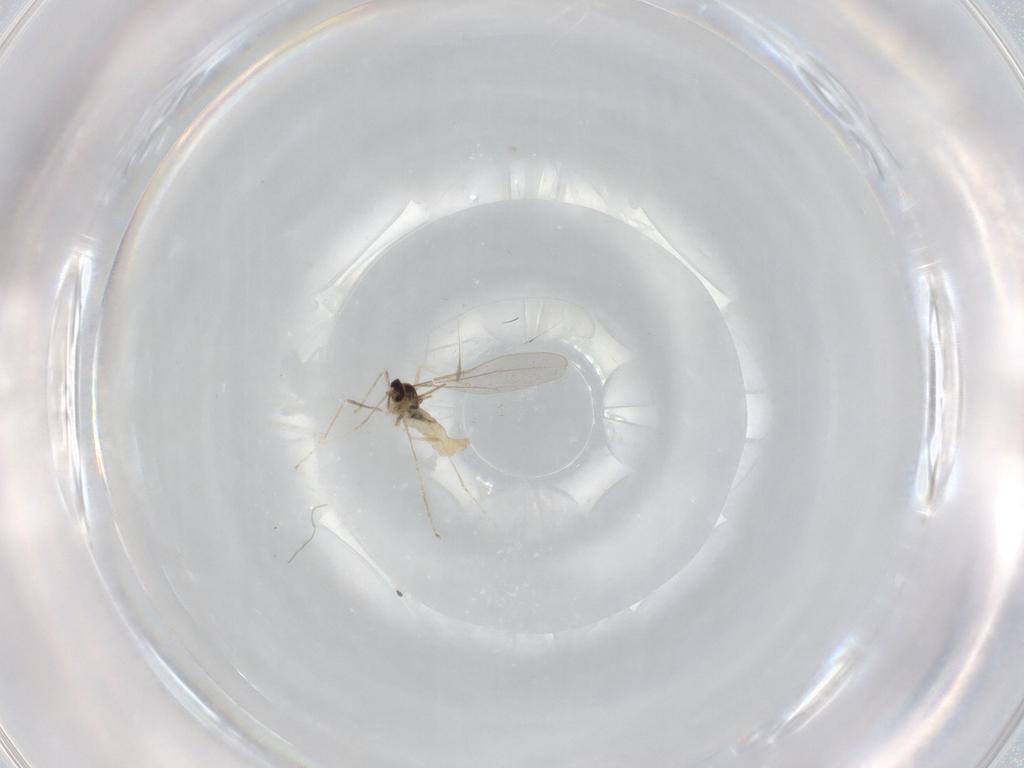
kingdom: Animalia
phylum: Arthropoda
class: Insecta
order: Diptera
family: Cecidomyiidae
